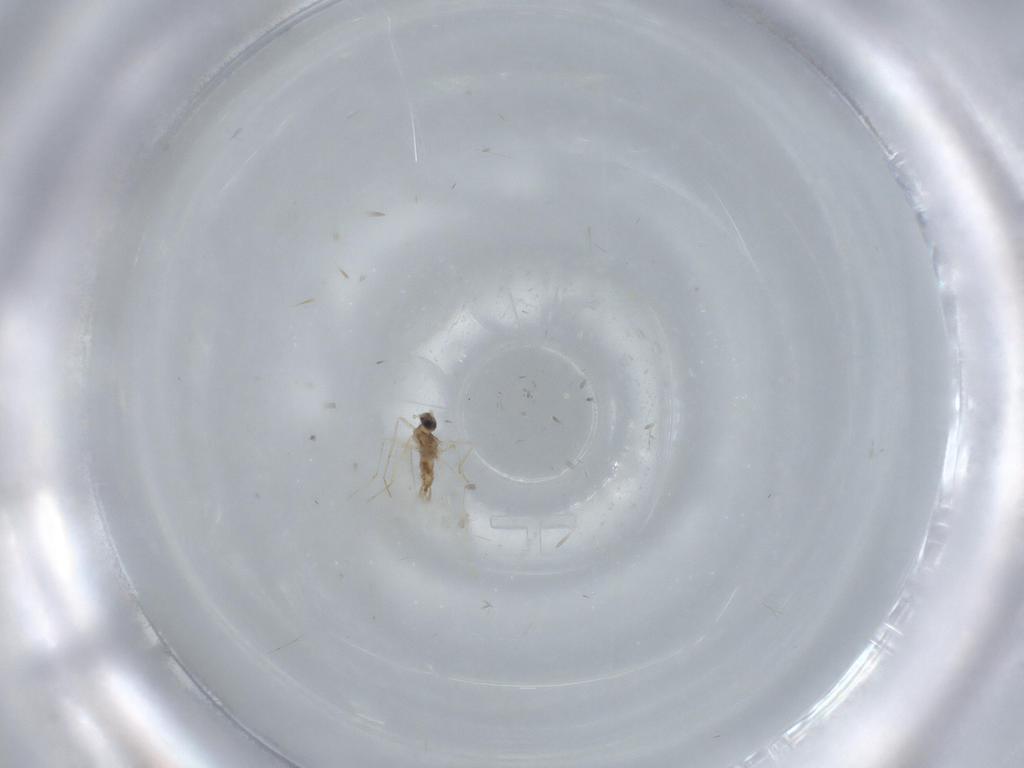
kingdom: Animalia
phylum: Arthropoda
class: Insecta
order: Diptera
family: Cecidomyiidae
